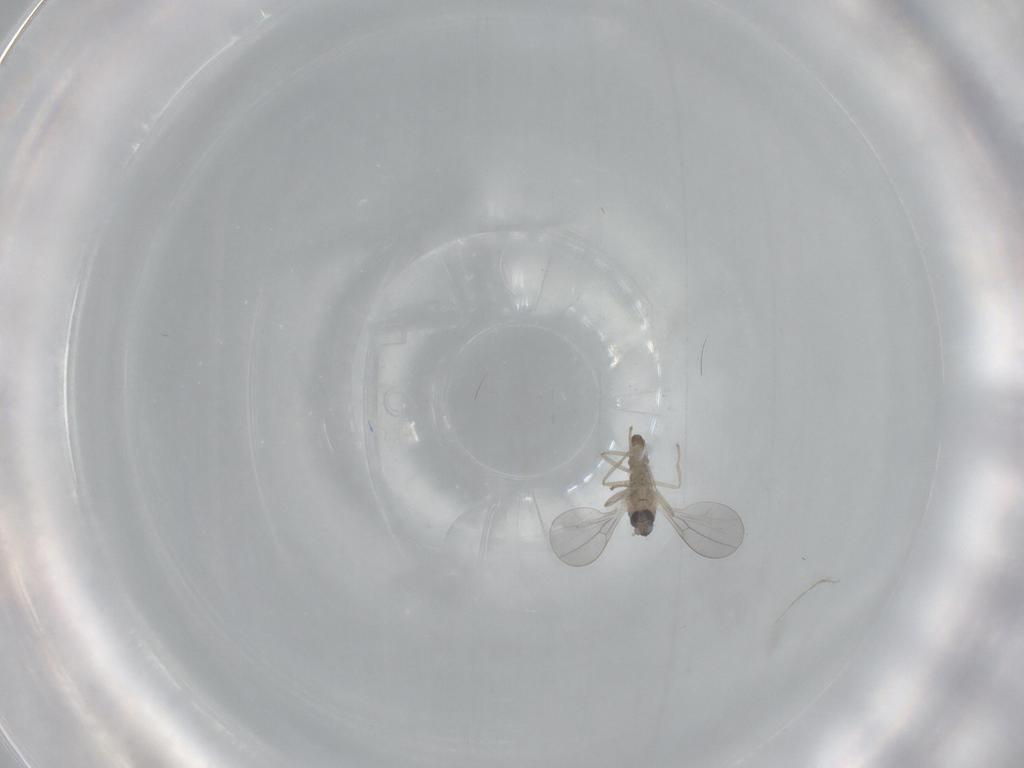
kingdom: Animalia
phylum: Arthropoda
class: Insecta
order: Diptera
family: Cecidomyiidae
